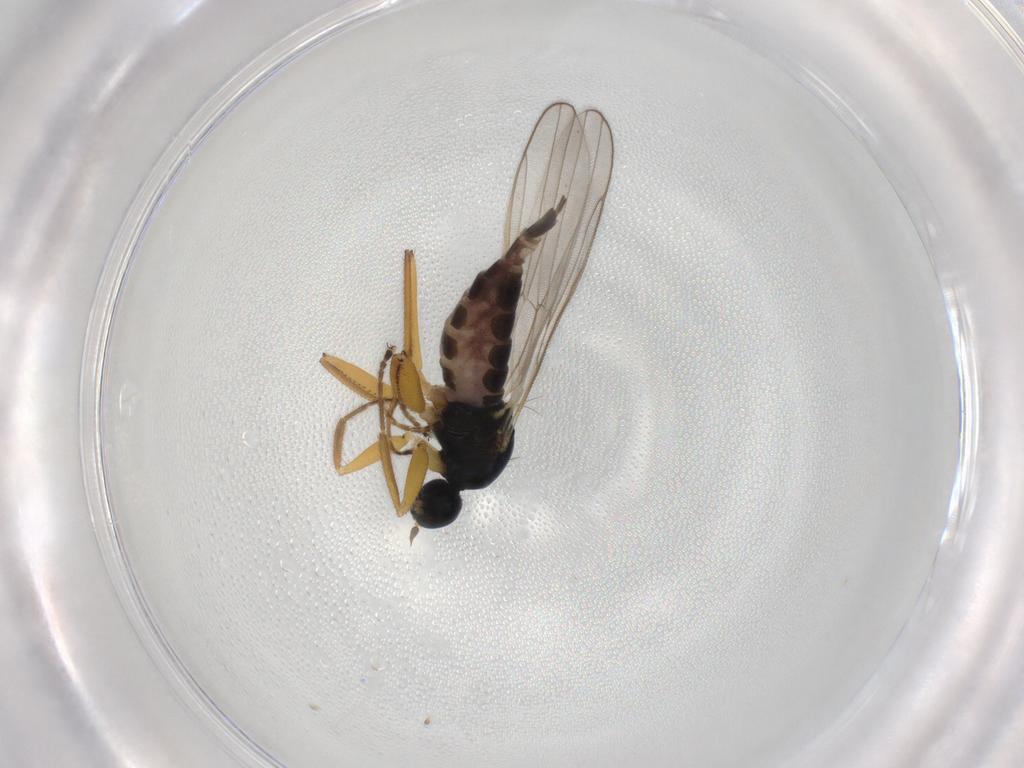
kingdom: Animalia
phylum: Arthropoda
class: Insecta
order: Diptera
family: Hybotidae
